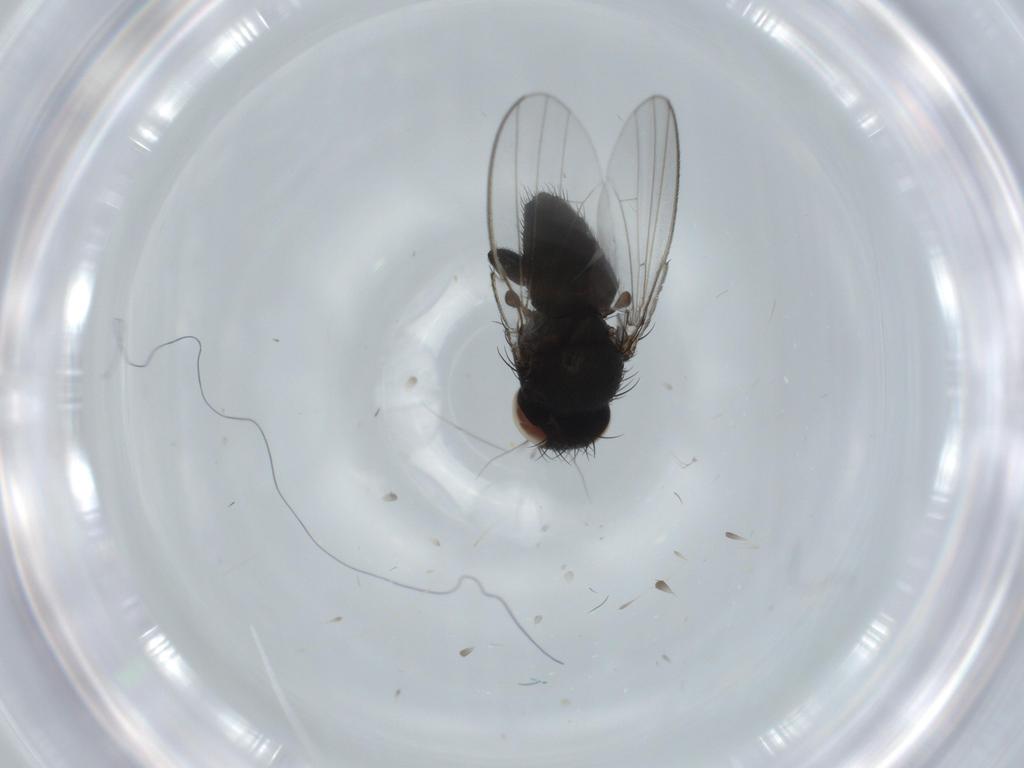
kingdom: Animalia
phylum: Arthropoda
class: Insecta
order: Diptera
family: Milichiidae
